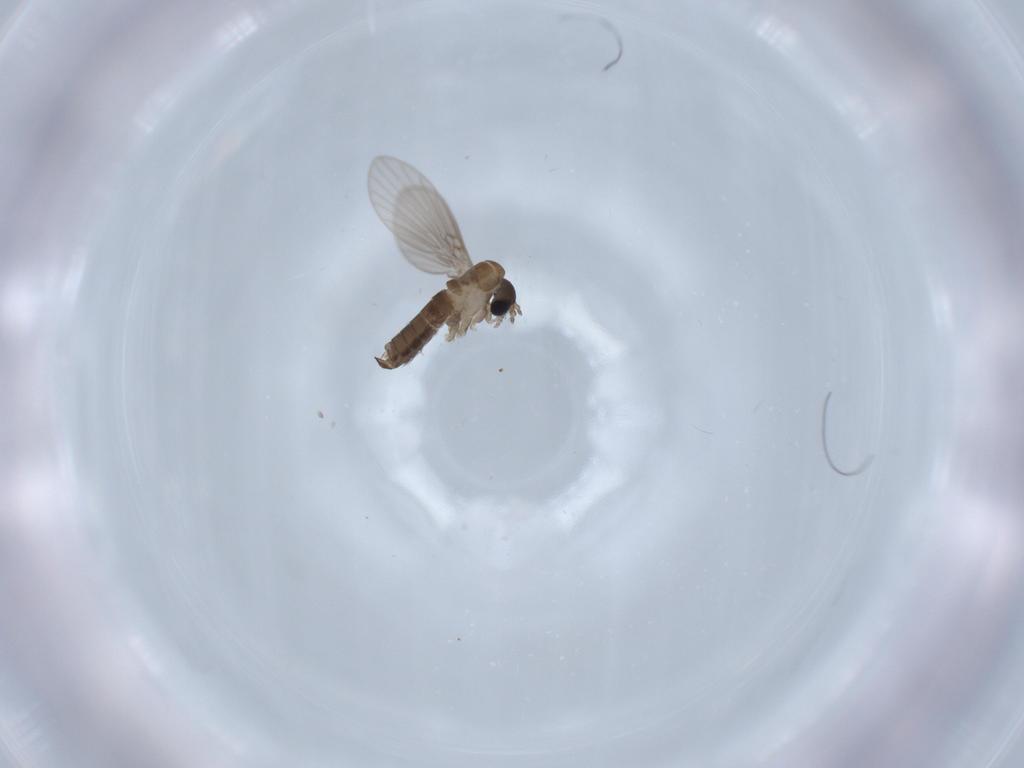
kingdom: Animalia
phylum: Arthropoda
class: Insecta
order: Diptera
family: Psychodidae
